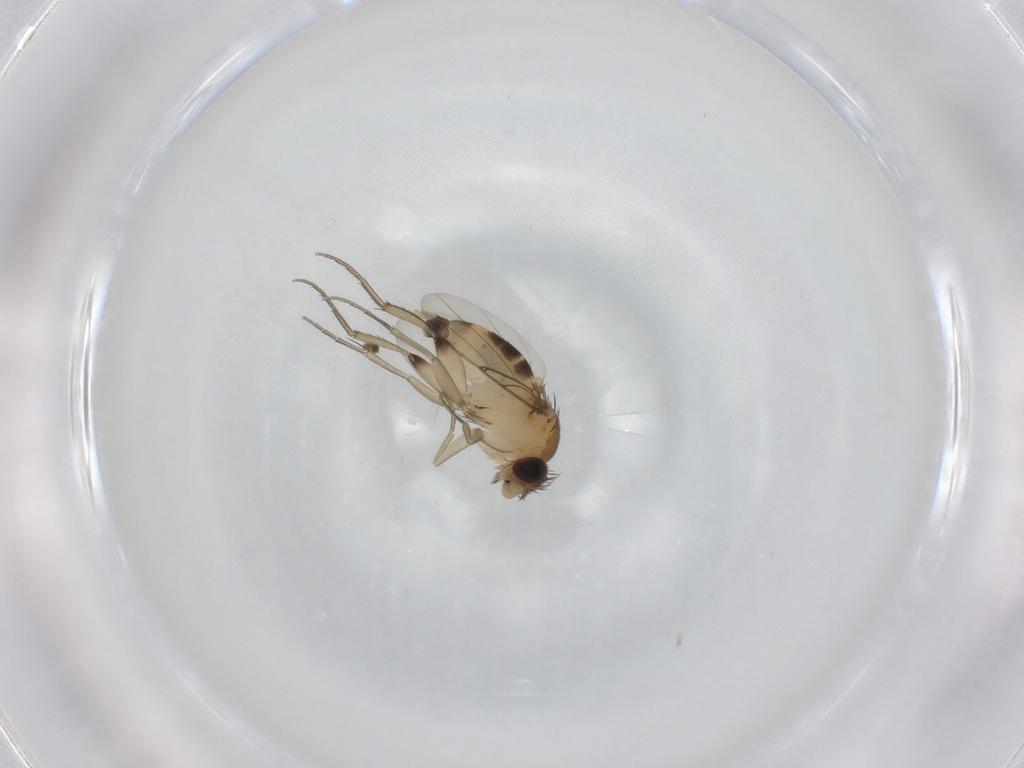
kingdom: Animalia
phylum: Arthropoda
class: Insecta
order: Diptera
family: Phoridae
